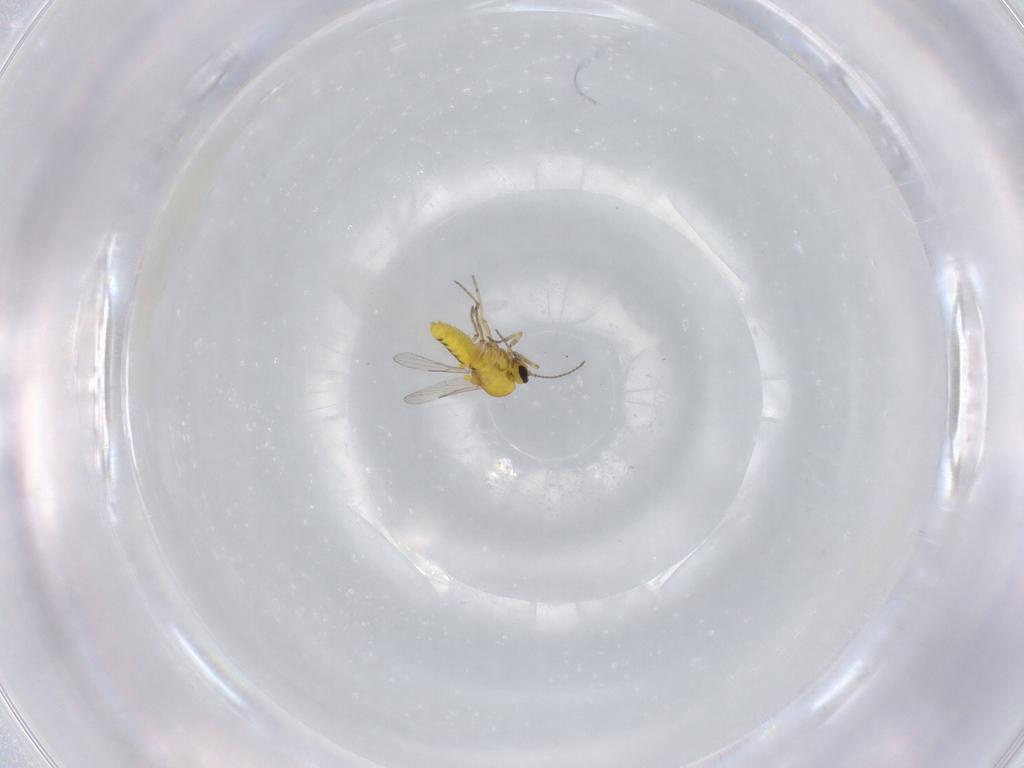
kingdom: Animalia
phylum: Arthropoda
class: Insecta
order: Diptera
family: Ceratopogonidae
